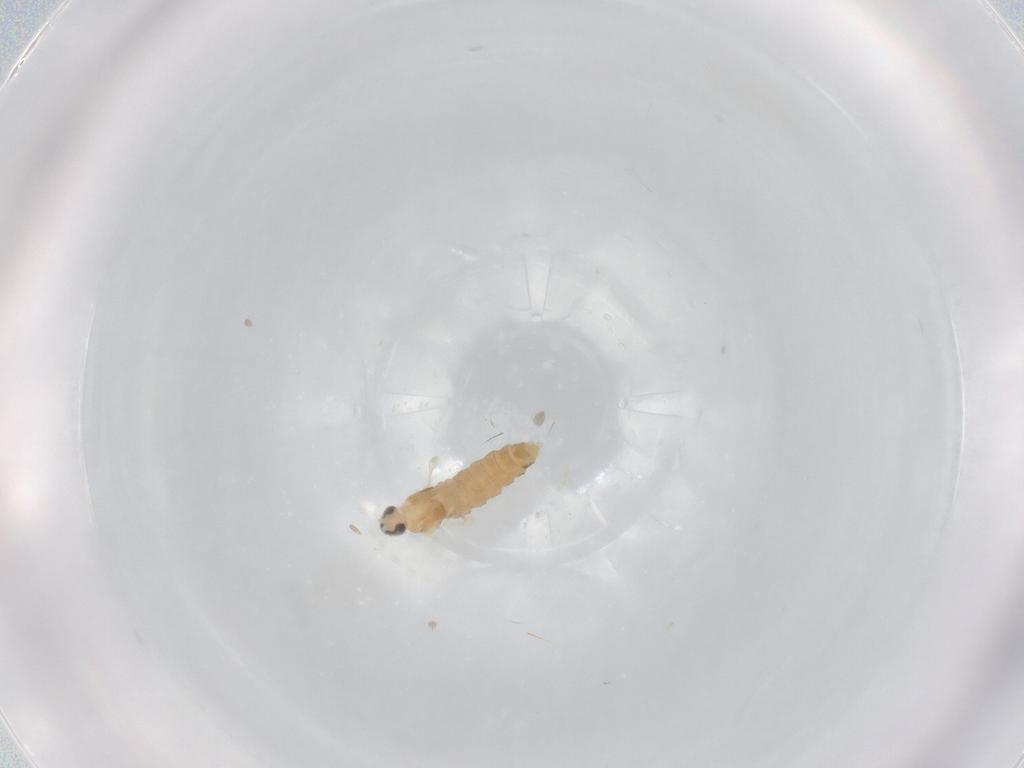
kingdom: Animalia
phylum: Arthropoda
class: Insecta
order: Diptera
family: Cecidomyiidae
